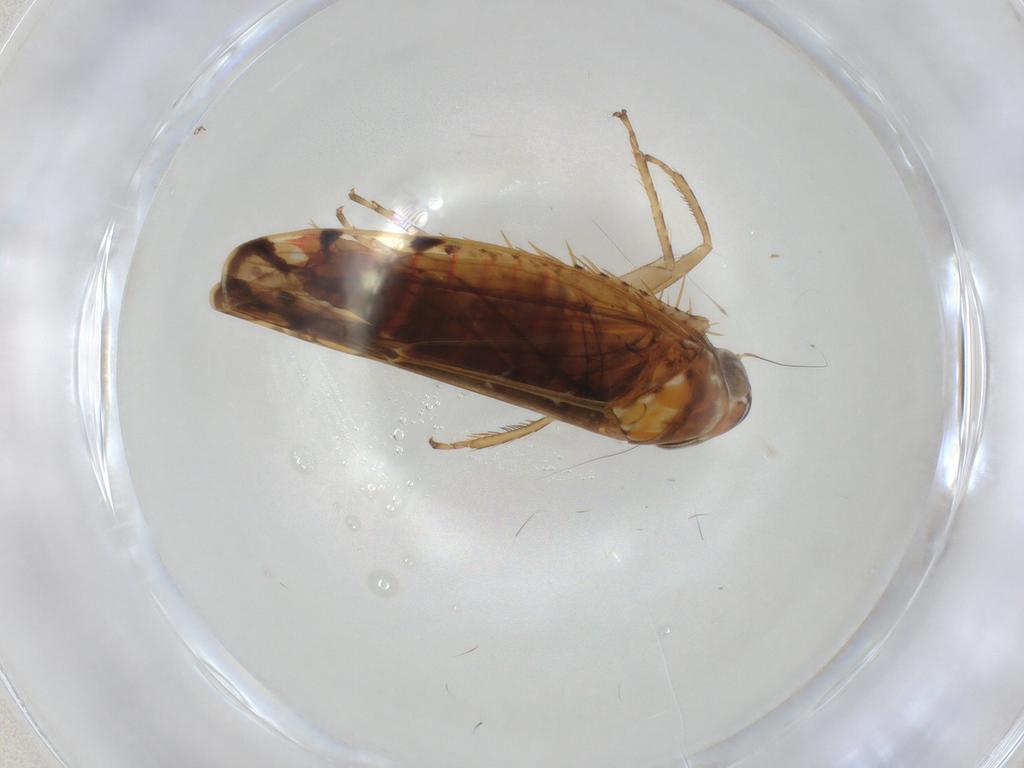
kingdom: Animalia
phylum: Arthropoda
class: Insecta
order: Hemiptera
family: Cicadellidae
